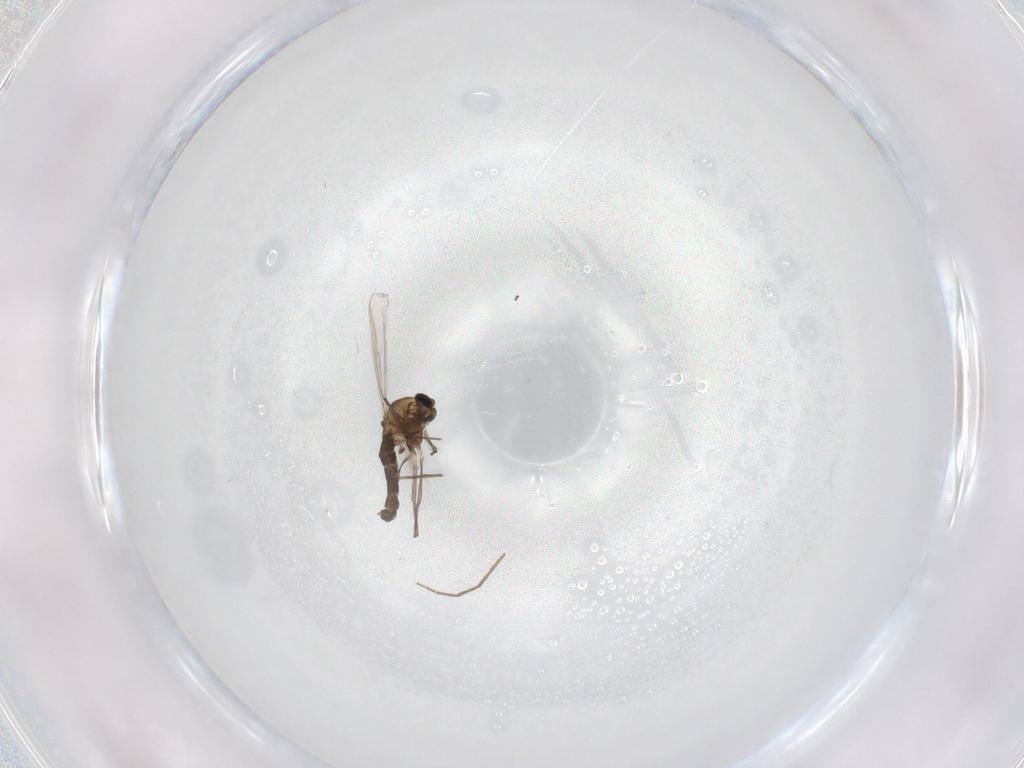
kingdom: Animalia
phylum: Arthropoda
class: Insecta
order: Diptera
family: Chironomidae
